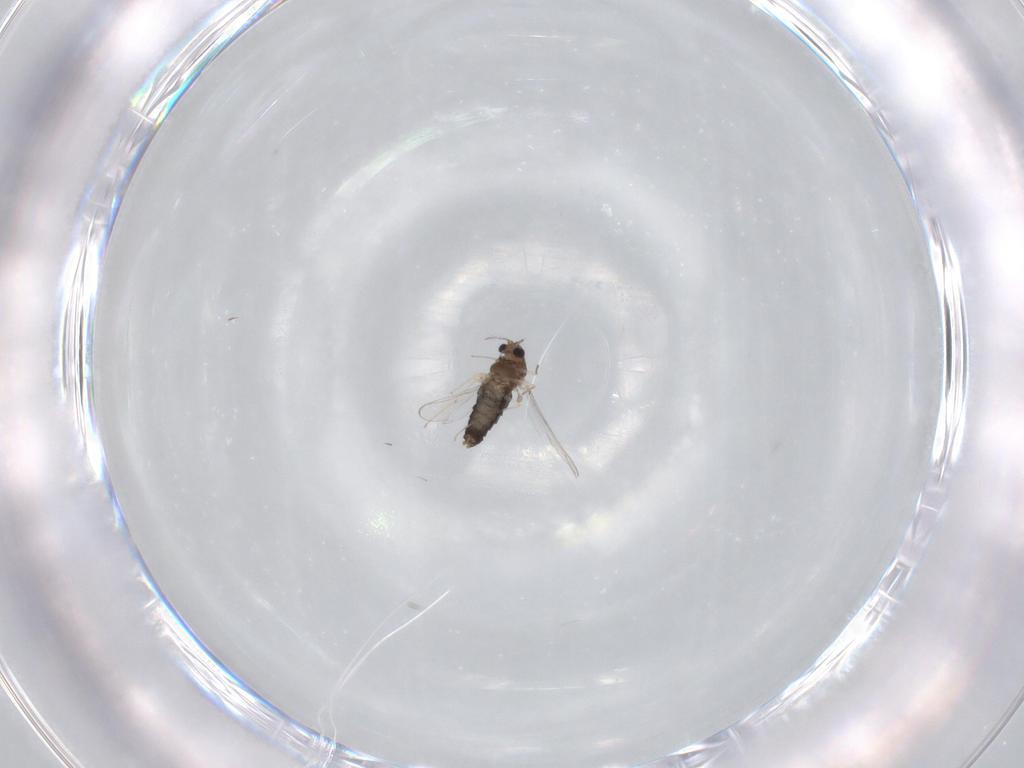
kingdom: Animalia
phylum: Arthropoda
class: Insecta
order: Diptera
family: Chironomidae
